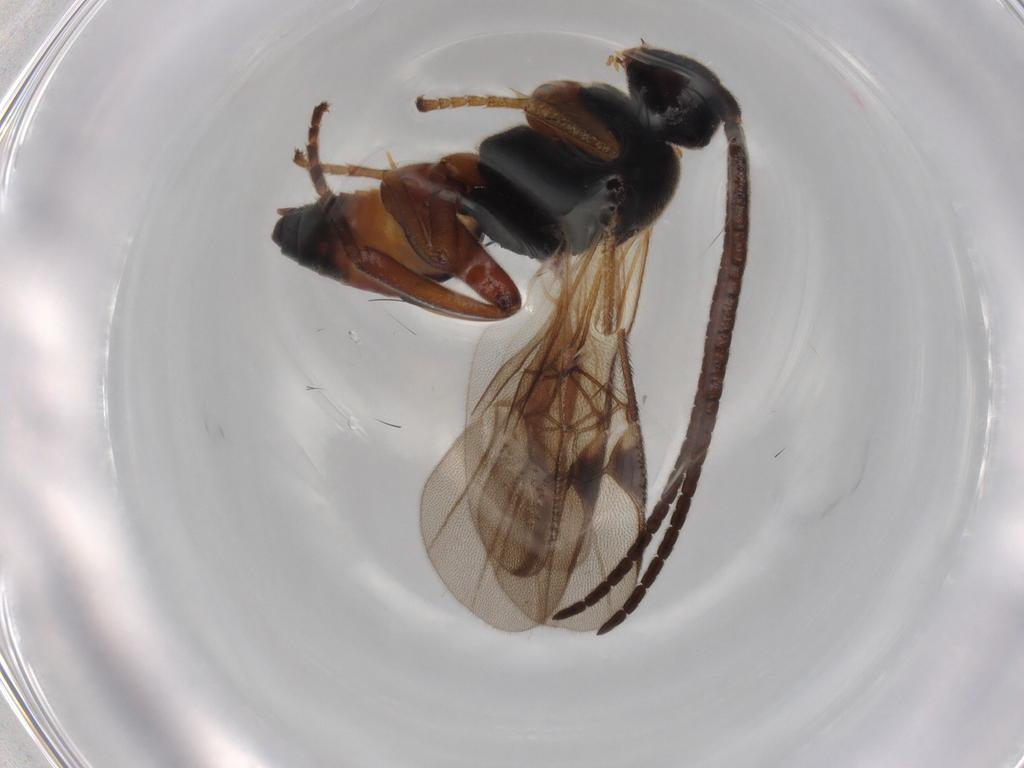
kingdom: Animalia
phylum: Arthropoda
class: Insecta
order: Hymenoptera
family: Braconidae
